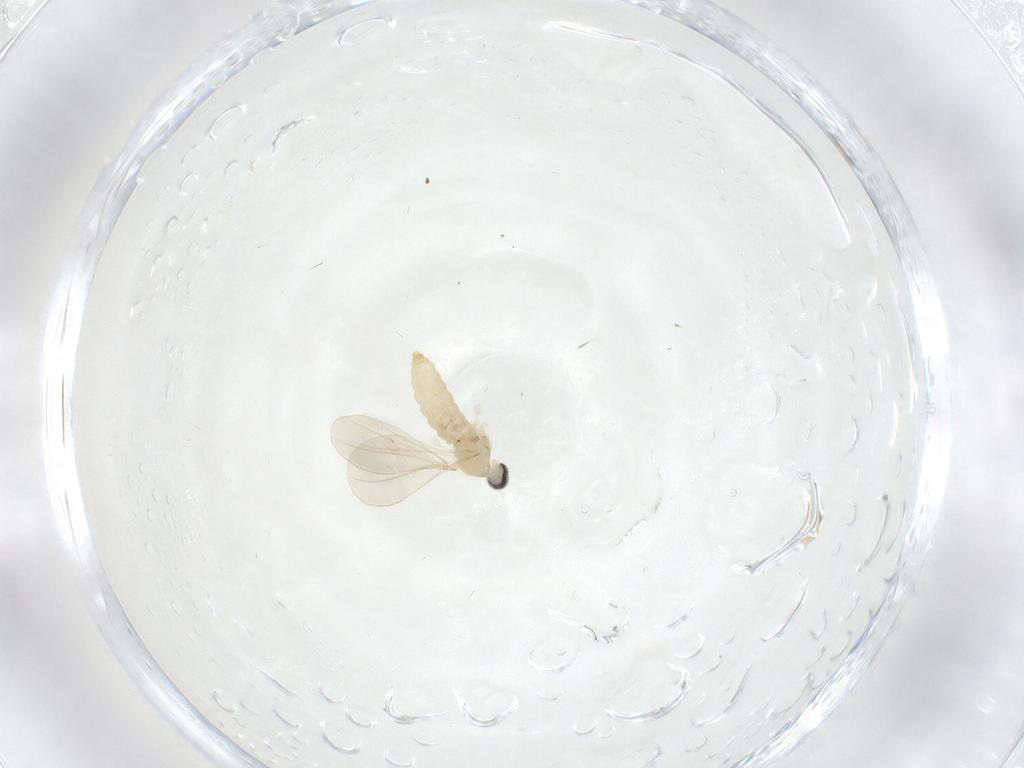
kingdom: Animalia
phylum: Arthropoda
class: Insecta
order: Diptera
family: Cecidomyiidae
